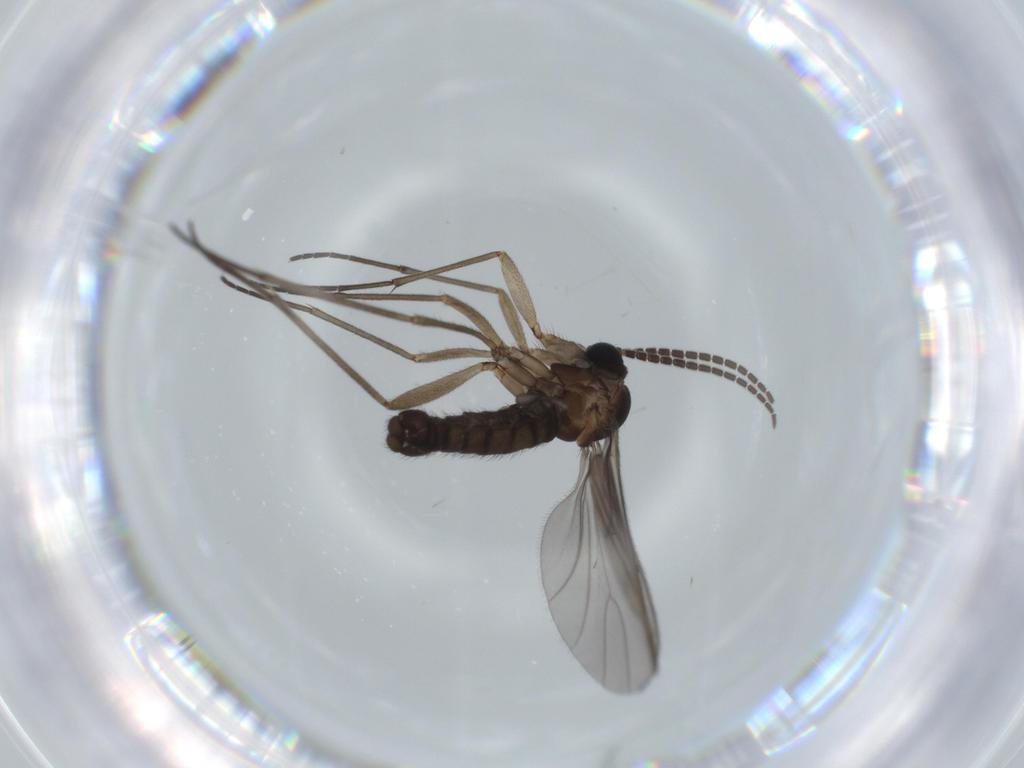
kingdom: Animalia
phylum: Arthropoda
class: Insecta
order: Diptera
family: Sciaridae
